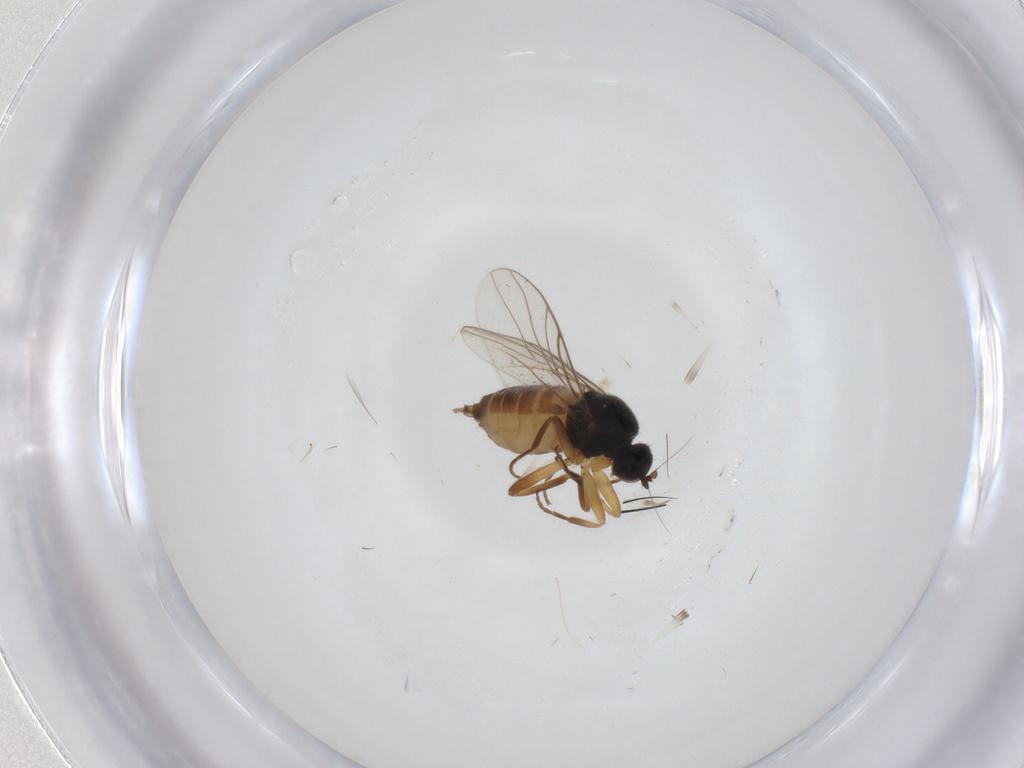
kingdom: Animalia
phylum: Arthropoda
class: Insecta
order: Diptera
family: Hybotidae
